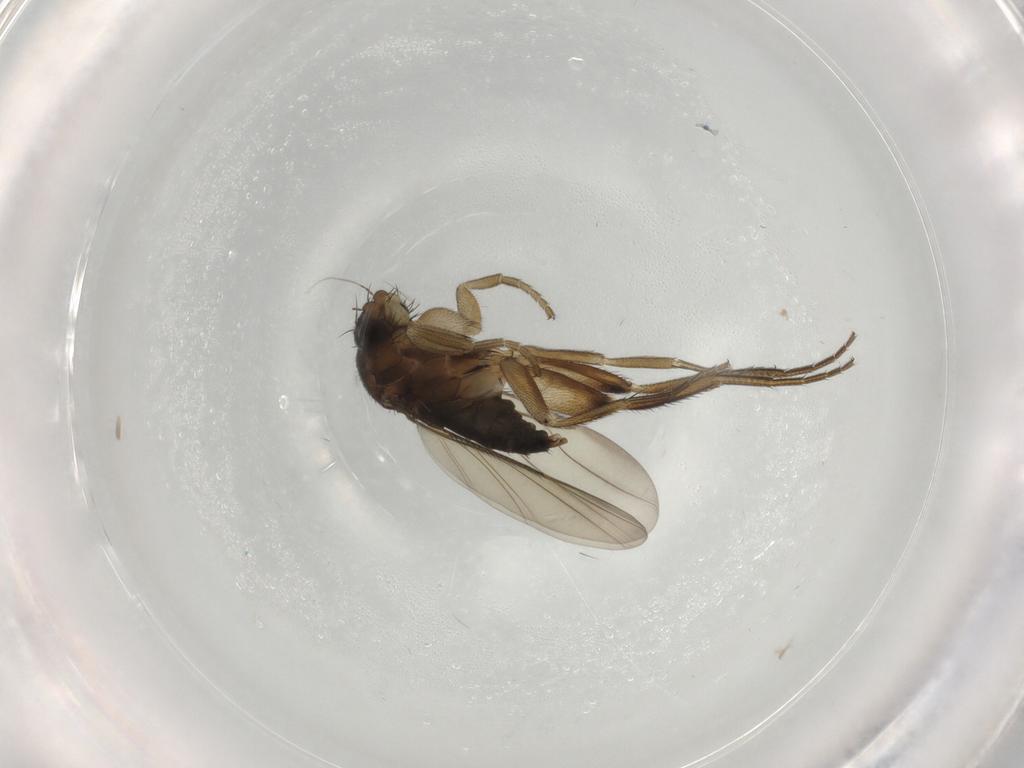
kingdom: Animalia
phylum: Arthropoda
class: Insecta
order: Diptera
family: Phoridae
